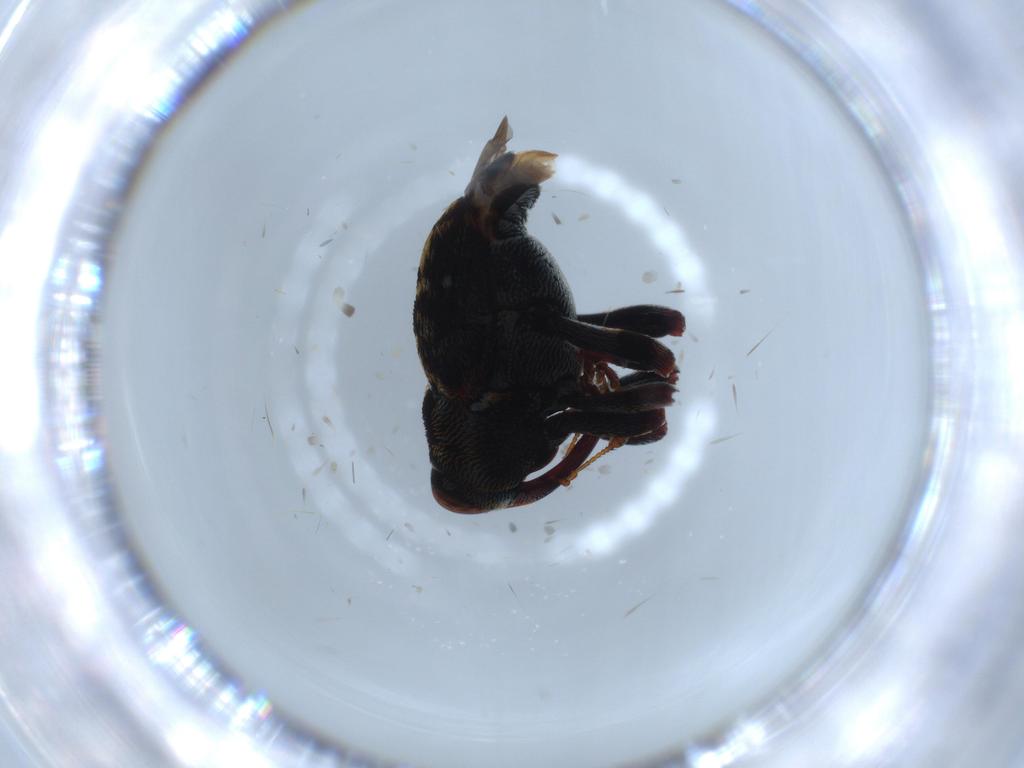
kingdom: Animalia
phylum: Arthropoda
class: Insecta
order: Coleoptera
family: Curculionidae
